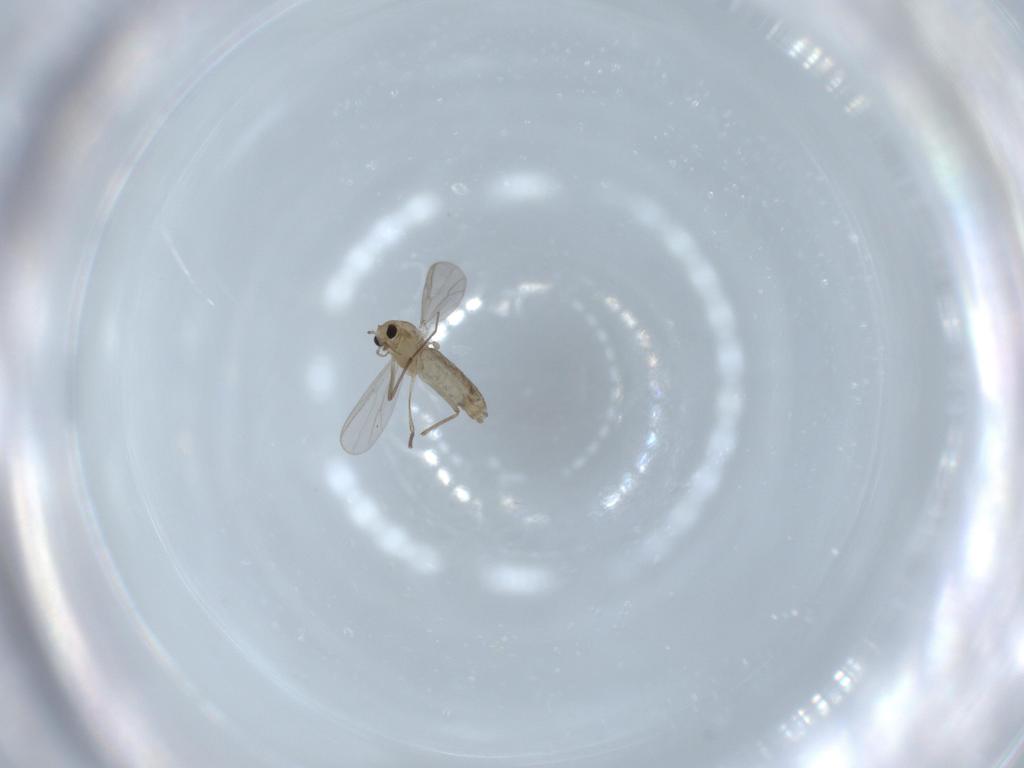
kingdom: Animalia
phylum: Arthropoda
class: Insecta
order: Diptera
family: Chironomidae
